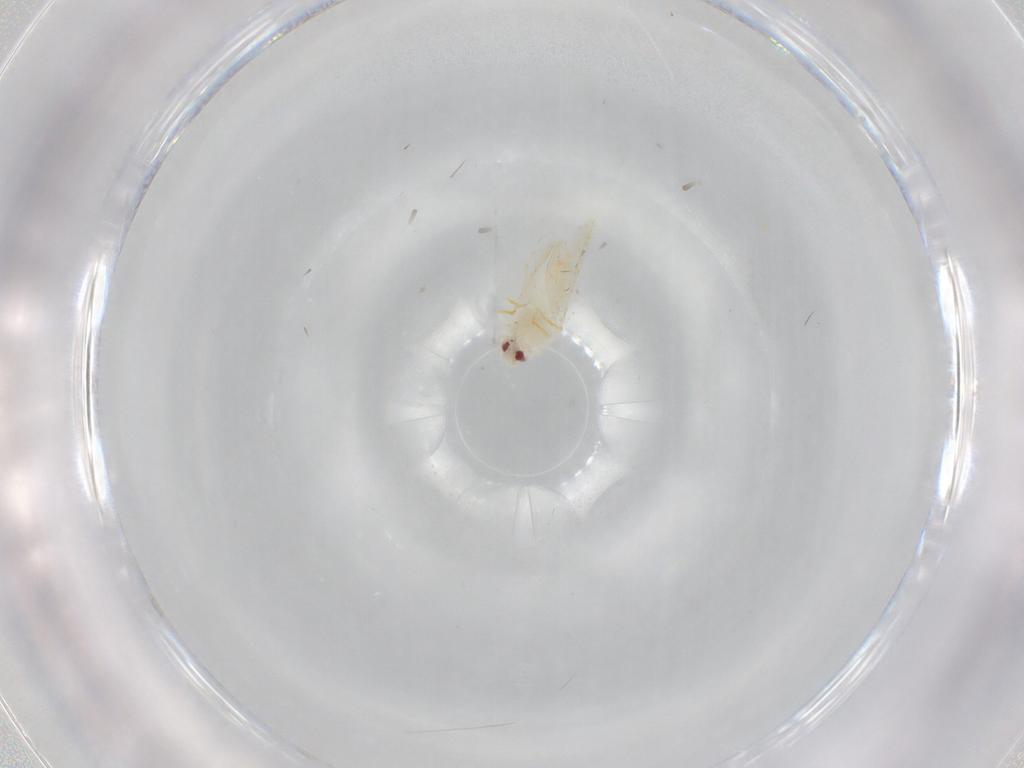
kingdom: Animalia
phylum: Arthropoda
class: Insecta
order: Hemiptera
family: Aleyrodidae
